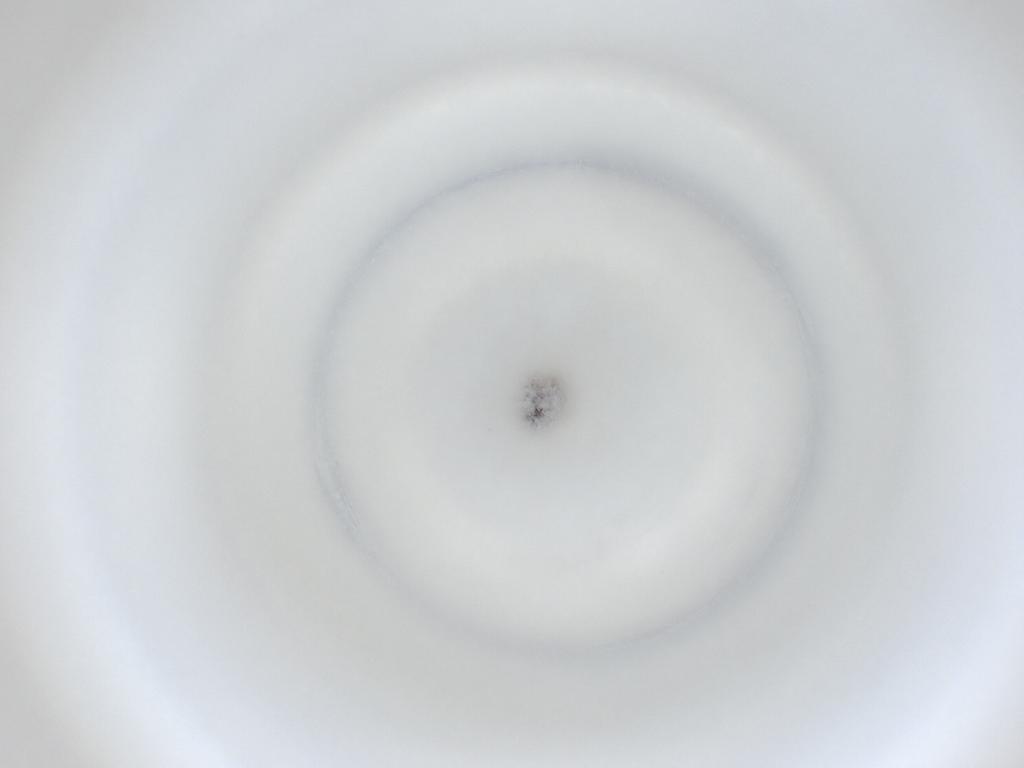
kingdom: Animalia
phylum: Arthropoda
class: Insecta
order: Diptera
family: Cecidomyiidae
